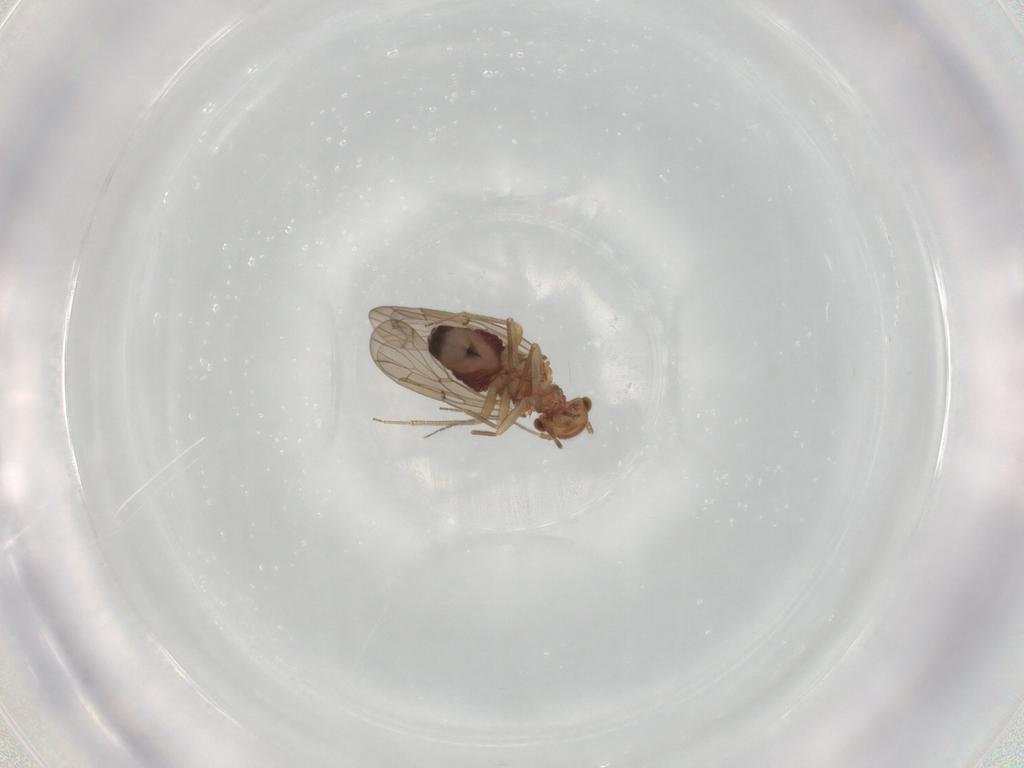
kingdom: Animalia
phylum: Arthropoda
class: Insecta
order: Psocodea
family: Ectopsocidae
